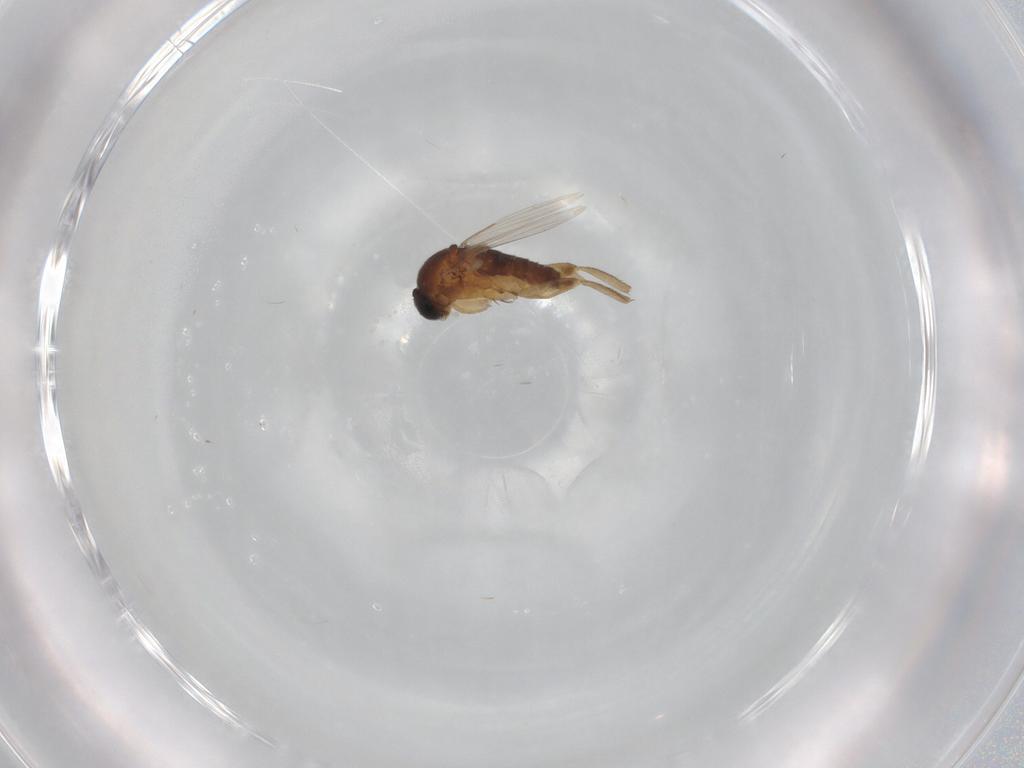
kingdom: Animalia
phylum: Arthropoda
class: Insecta
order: Diptera
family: Phoridae
